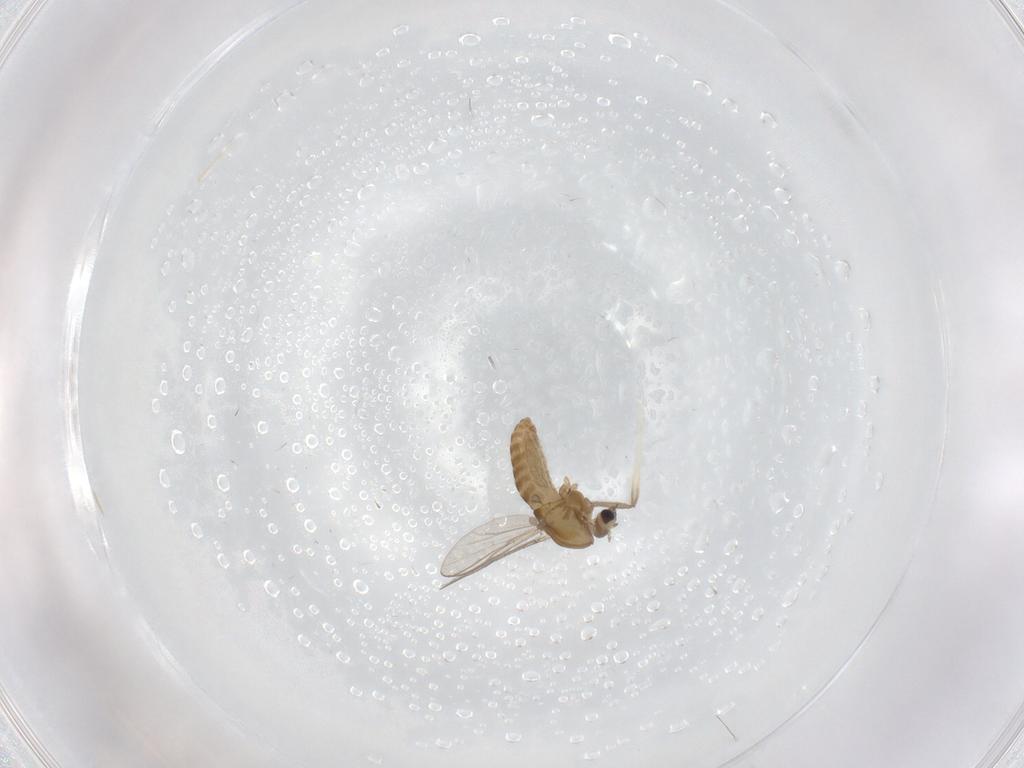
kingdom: Animalia
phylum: Arthropoda
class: Insecta
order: Diptera
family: Chironomidae
